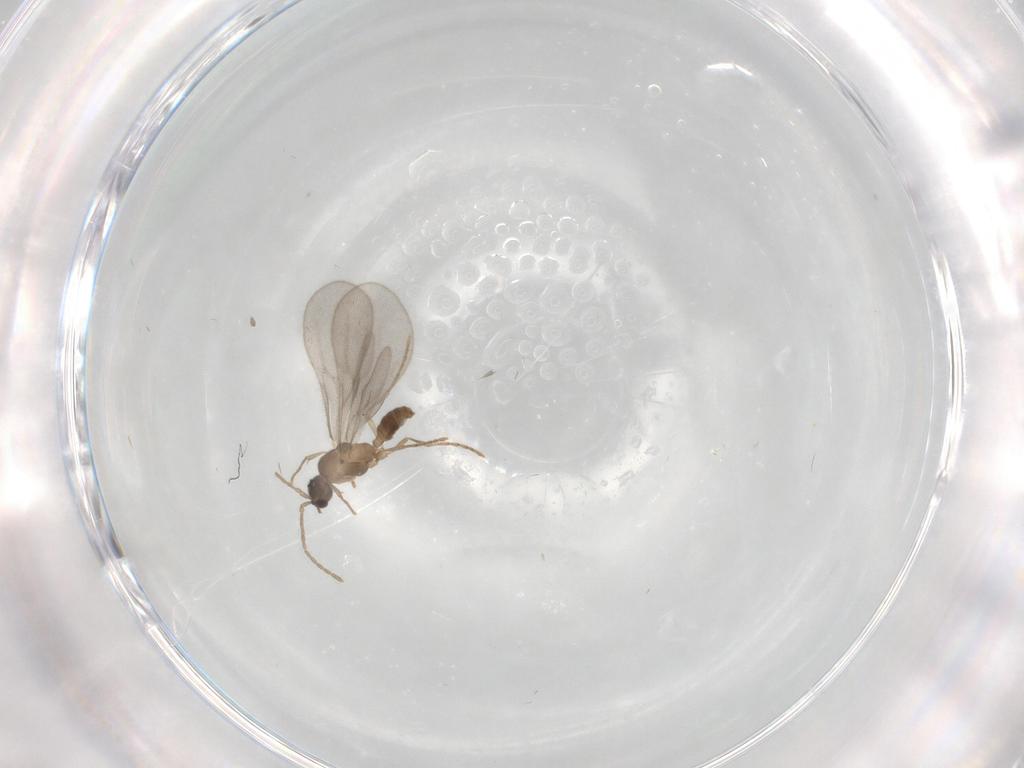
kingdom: Animalia
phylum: Arthropoda
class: Insecta
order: Hymenoptera
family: Formicidae
